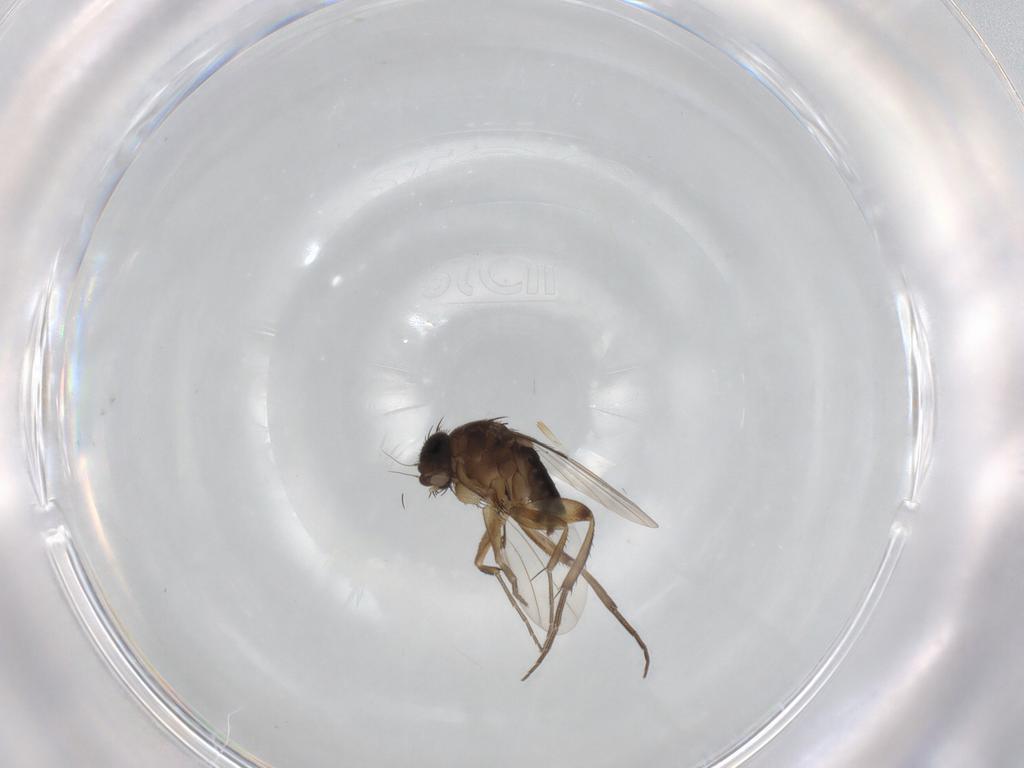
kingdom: Animalia
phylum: Arthropoda
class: Insecta
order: Diptera
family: Phoridae
